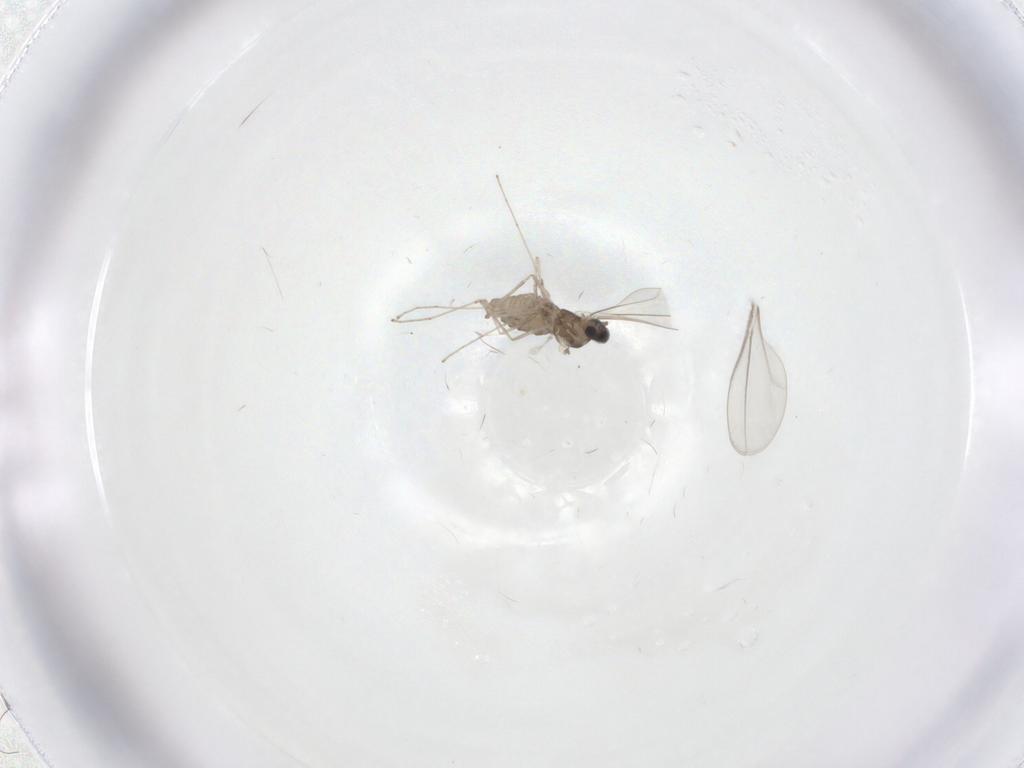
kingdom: Animalia
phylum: Arthropoda
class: Insecta
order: Diptera
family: Cecidomyiidae
